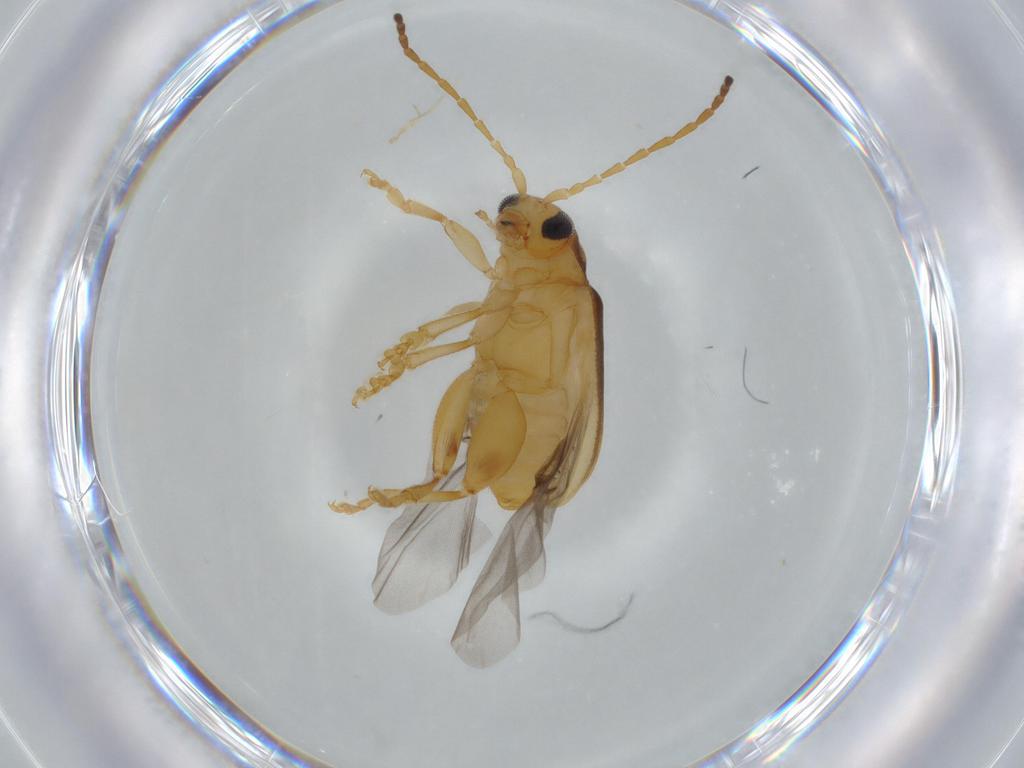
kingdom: Animalia
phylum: Arthropoda
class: Insecta
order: Coleoptera
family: Chrysomelidae
